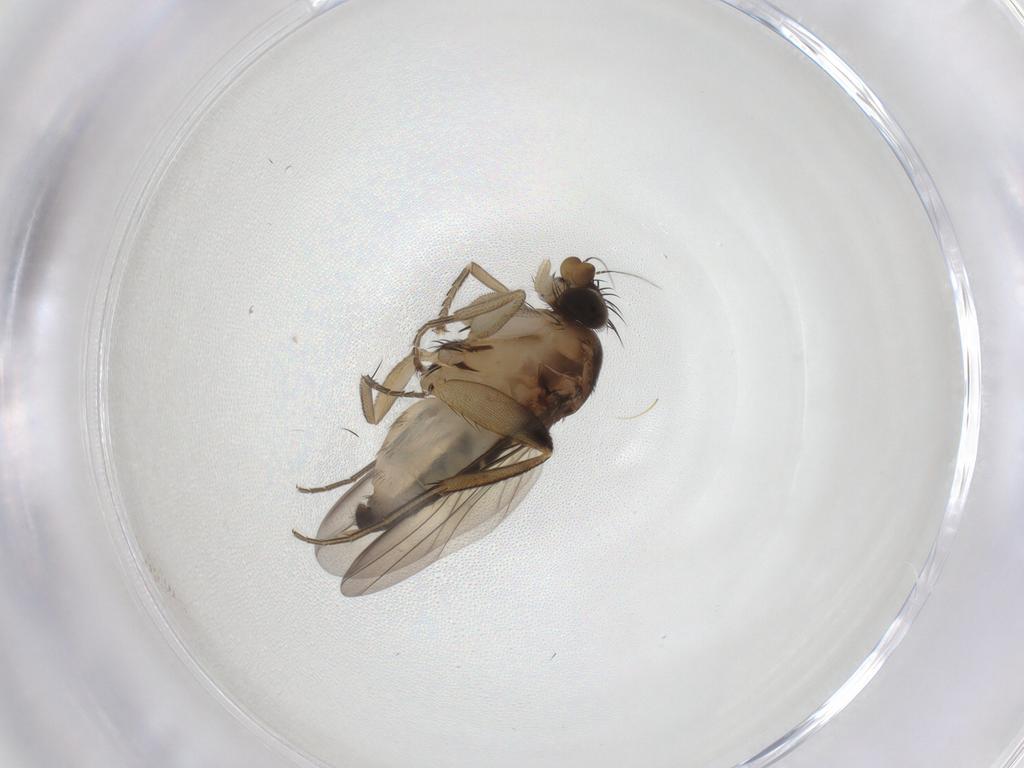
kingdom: Animalia
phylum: Arthropoda
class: Insecta
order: Diptera
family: Phoridae
